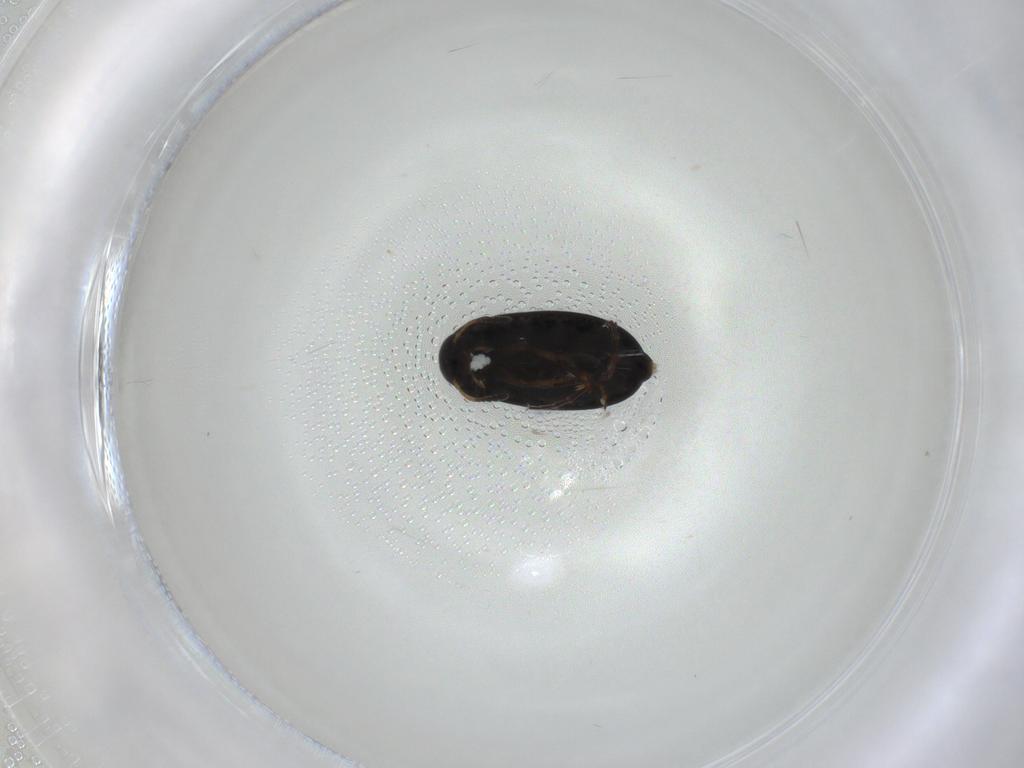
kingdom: Animalia
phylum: Arthropoda
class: Insecta
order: Coleoptera
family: Scraptiidae
